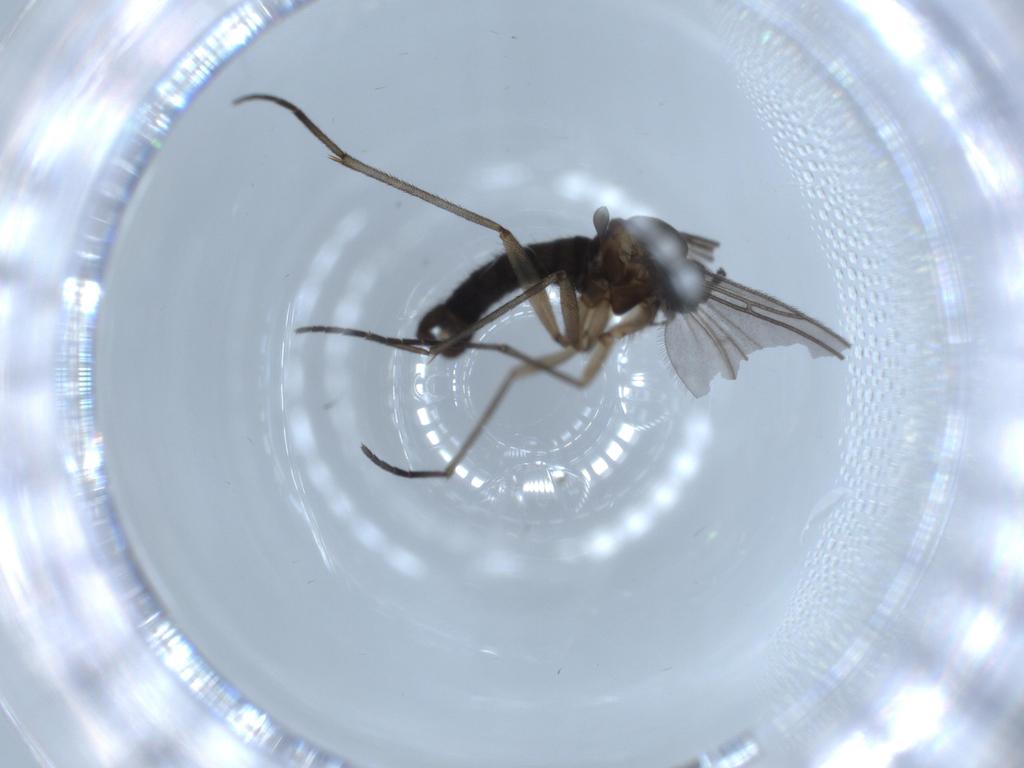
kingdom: Animalia
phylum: Arthropoda
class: Insecta
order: Diptera
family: Sciaridae
